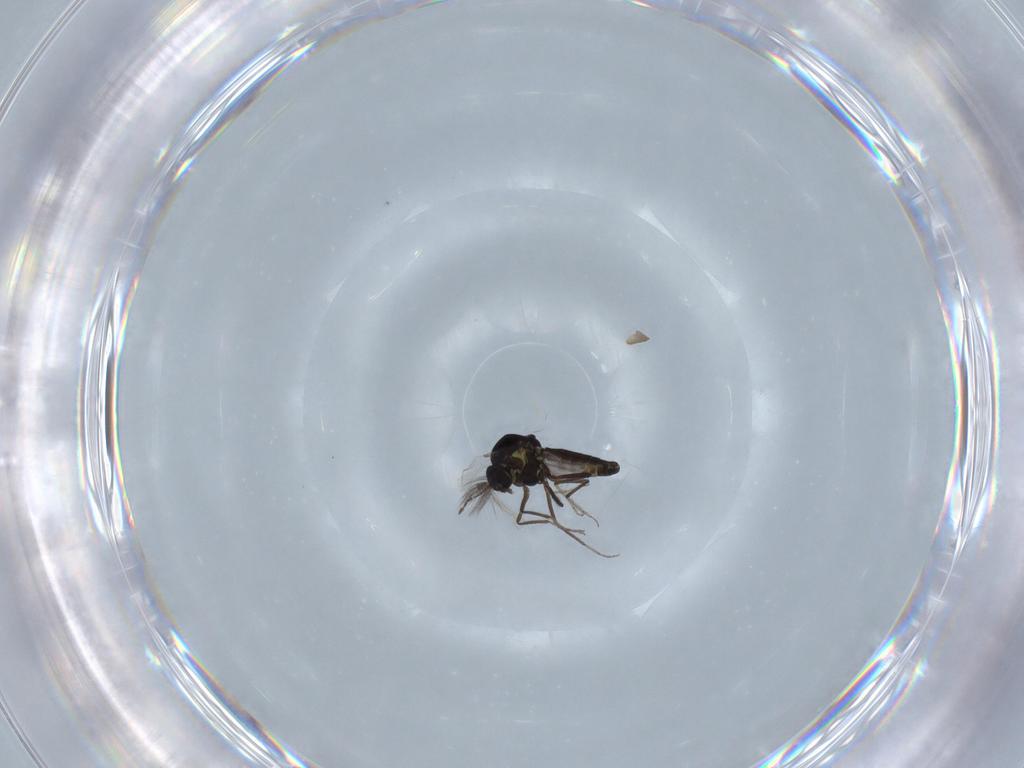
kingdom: Animalia
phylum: Arthropoda
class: Insecta
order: Diptera
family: Ceratopogonidae
